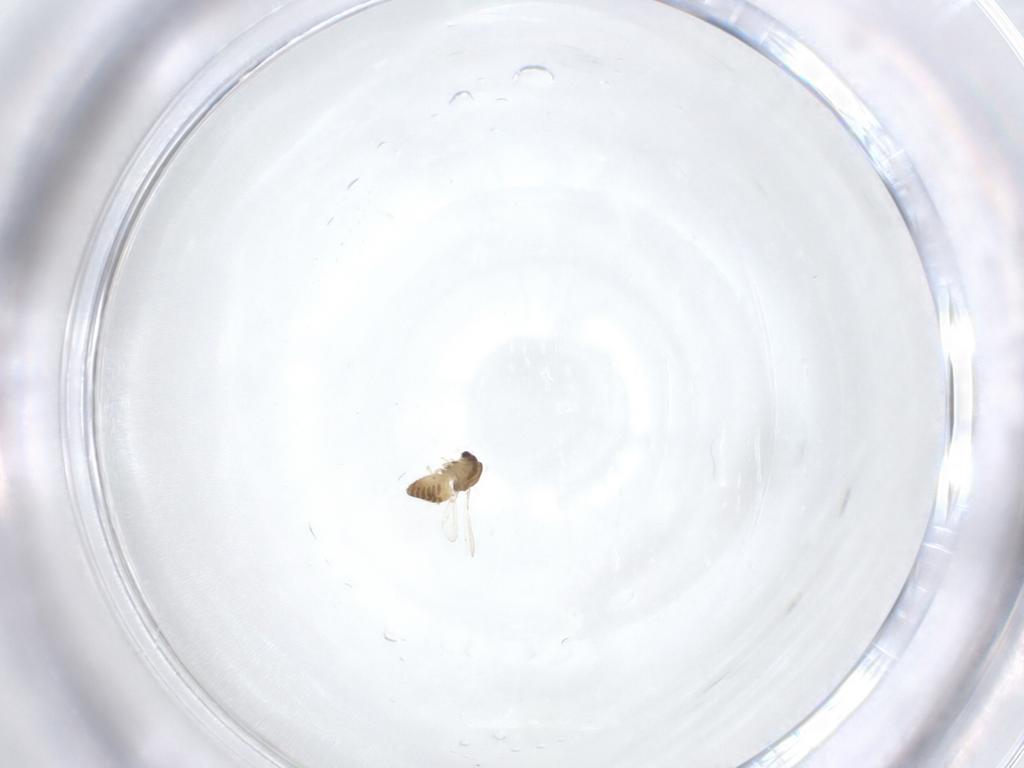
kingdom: Animalia
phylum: Arthropoda
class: Insecta
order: Diptera
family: Chironomidae
